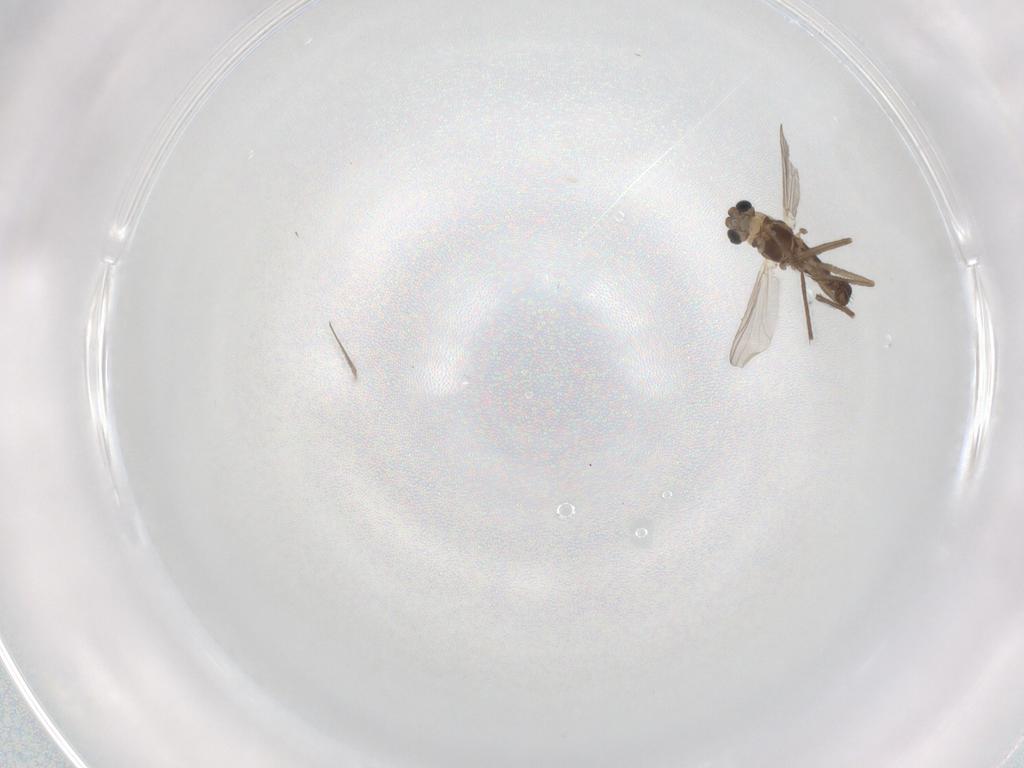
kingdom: Animalia
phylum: Arthropoda
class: Insecta
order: Diptera
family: Chironomidae
